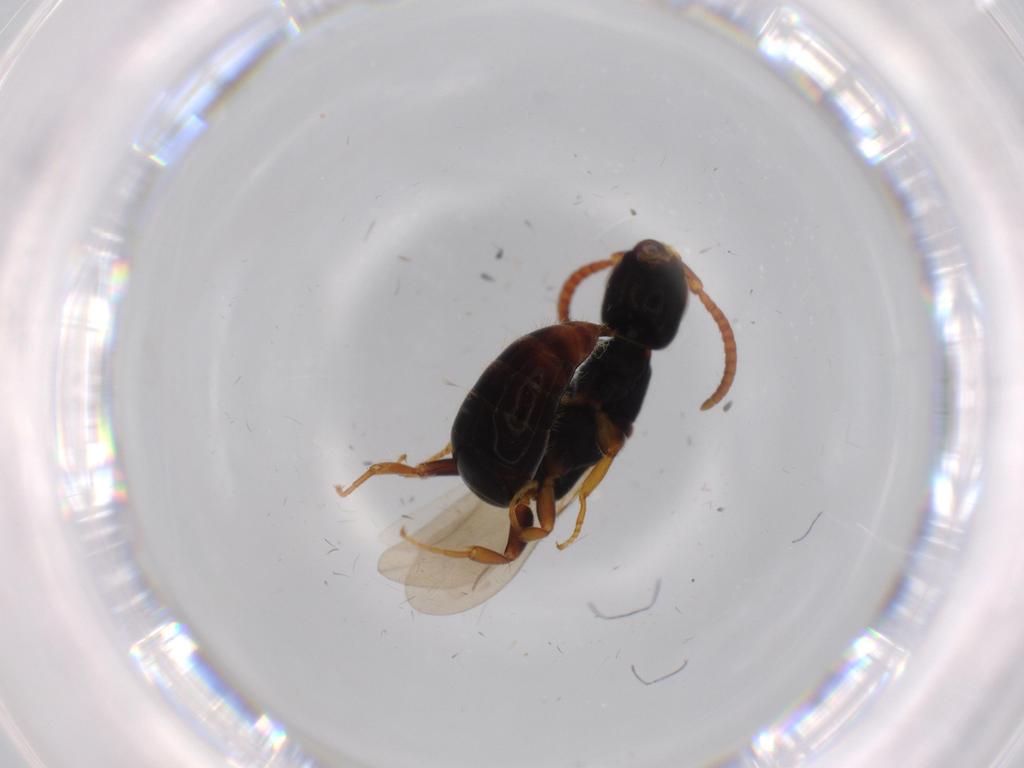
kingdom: Animalia
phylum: Arthropoda
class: Insecta
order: Hymenoptera
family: Bethylidae
